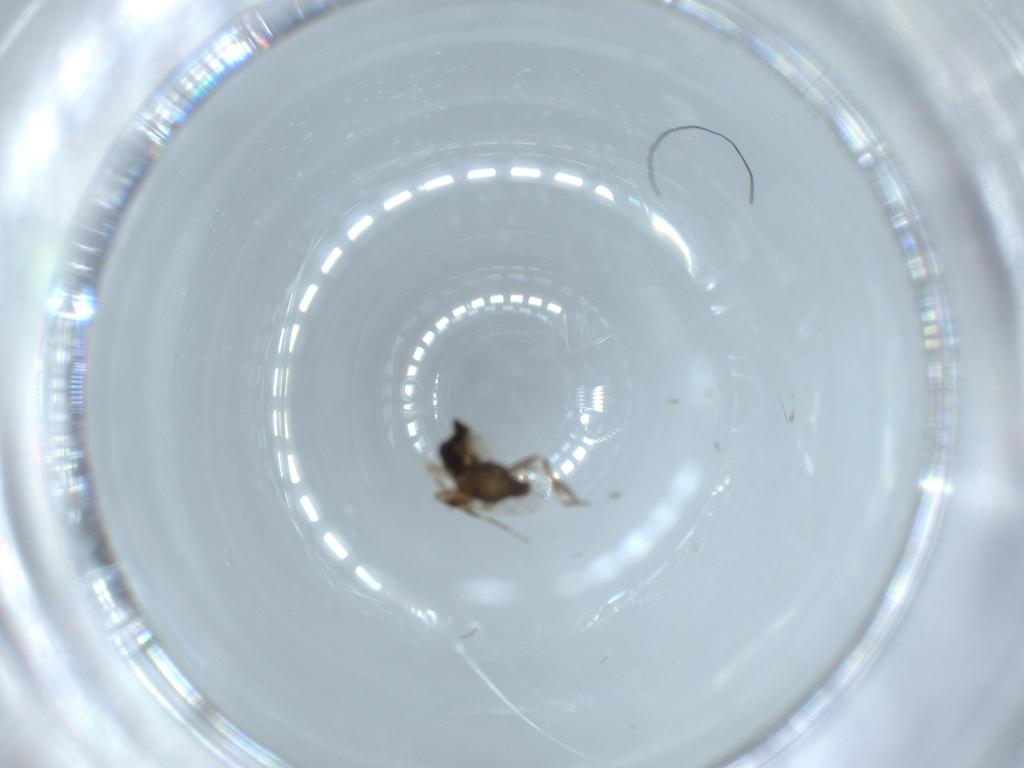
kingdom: Animalia
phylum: Arthropoda
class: Insecta
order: Diptera
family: Ceratopogonidae
